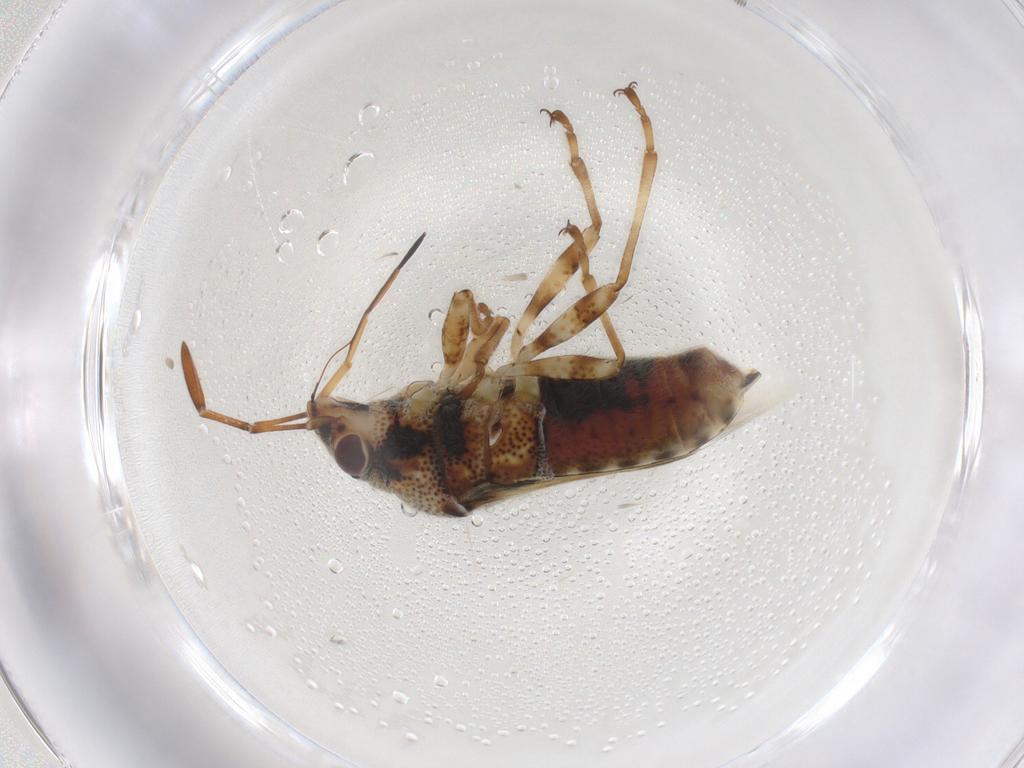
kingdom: Animalia
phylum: Arthropoda
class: Insecta
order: Hemiptera
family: Lygaeidae
